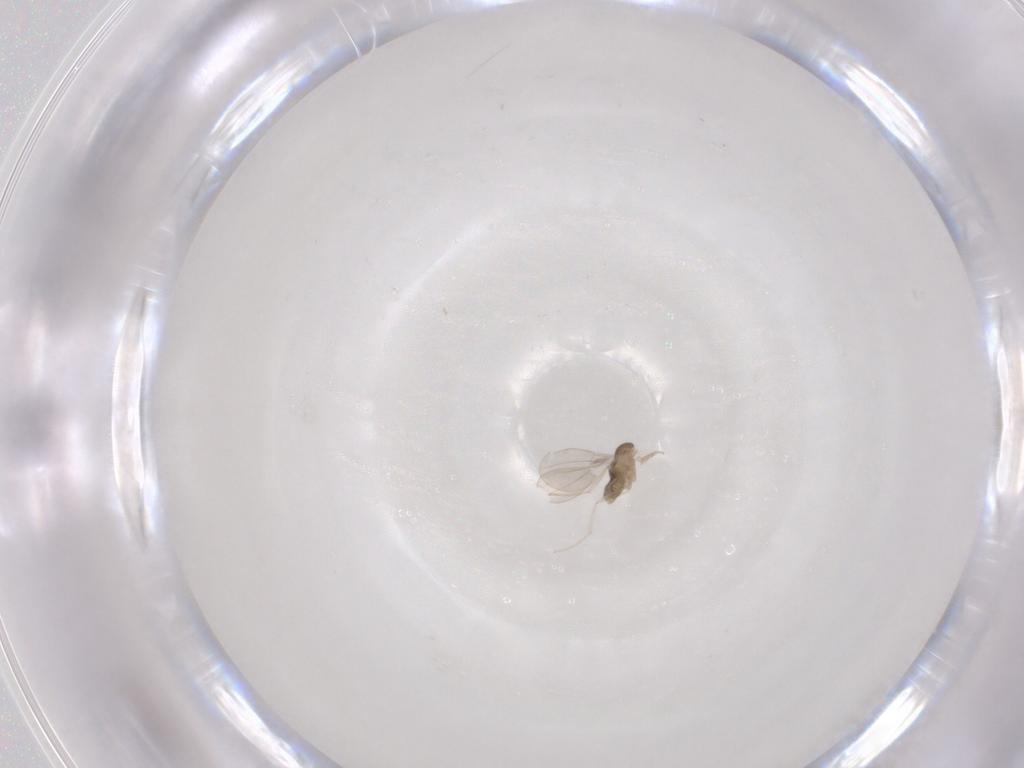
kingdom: Animalia
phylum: Arthropoda
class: Insecta
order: Diptera
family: Cecidomyiidae
